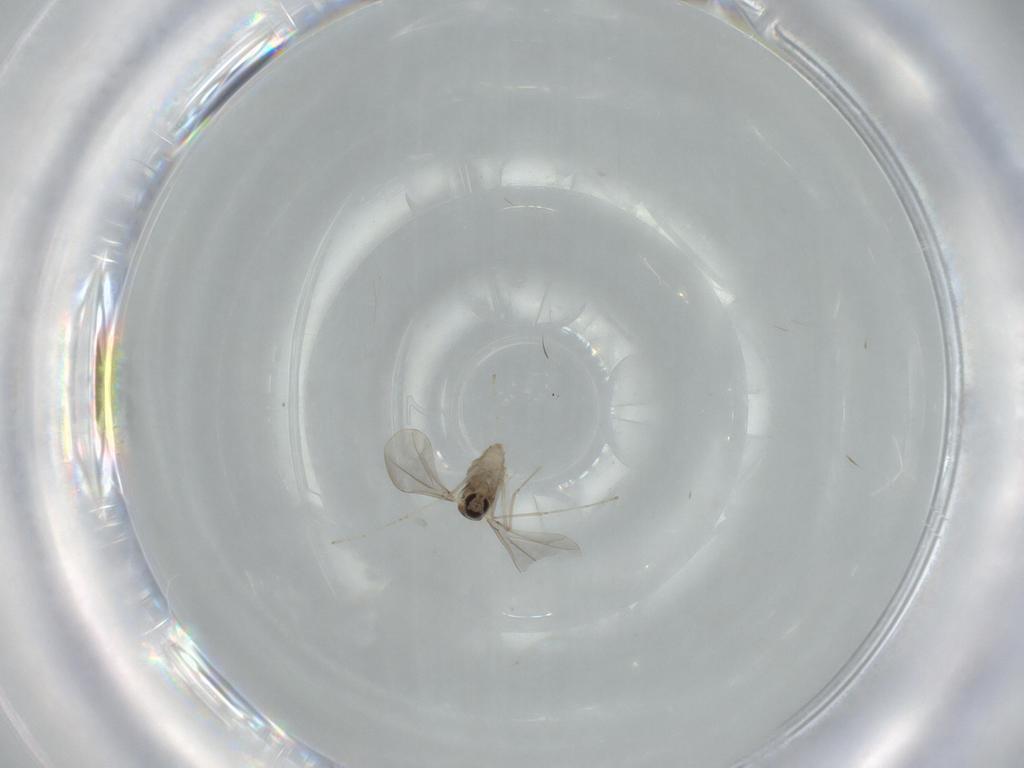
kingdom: Animalia
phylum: Arthropoda
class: Insecta
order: Diptera
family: Cecidomyiidae
